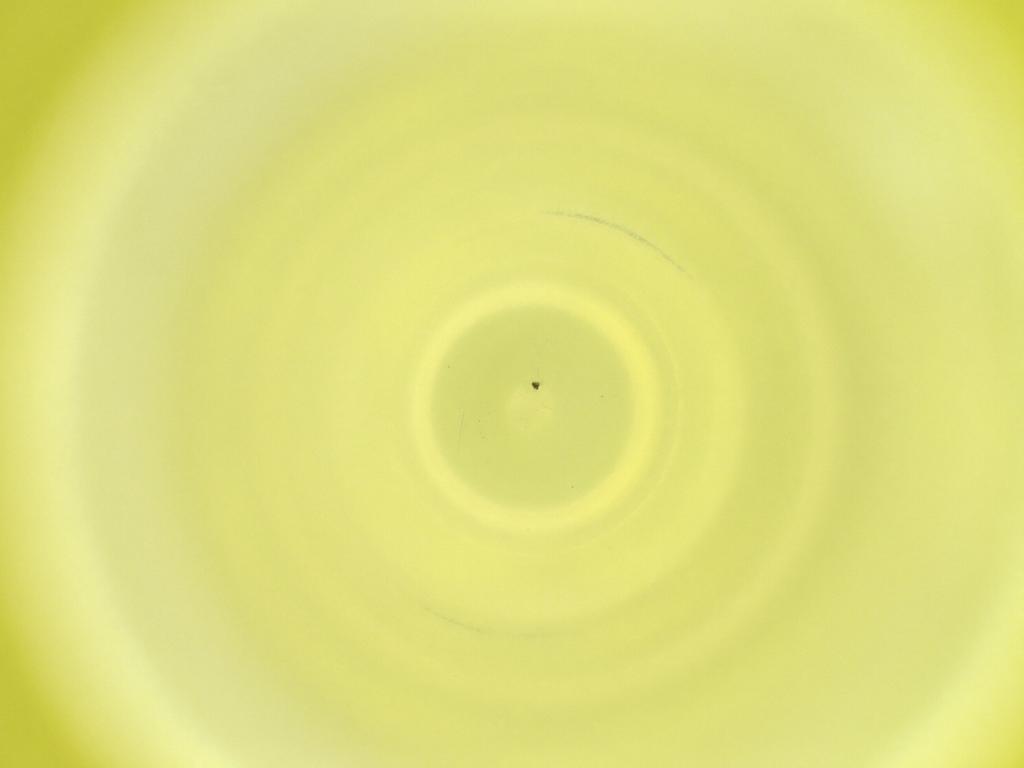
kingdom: Animalia
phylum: Arthropoda
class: Insecta
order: Diptera
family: Cecidomyiidae
